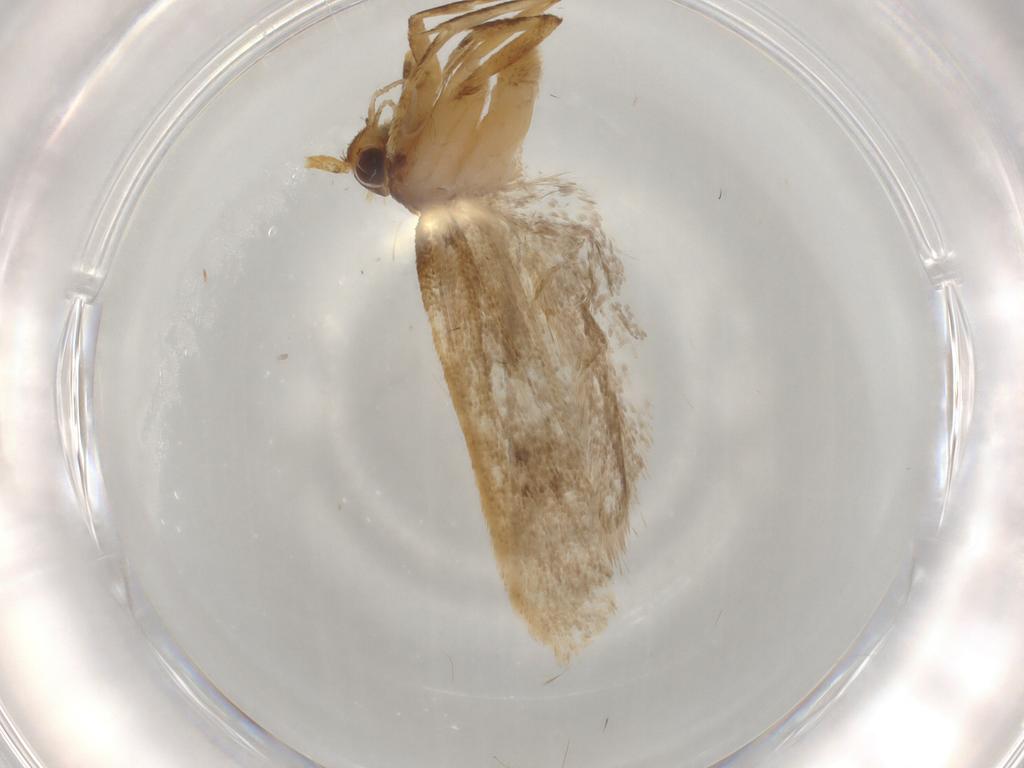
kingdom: Animalia
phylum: Arthropoda
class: Insecta
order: Lepidoptera
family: Lecithoceridae
